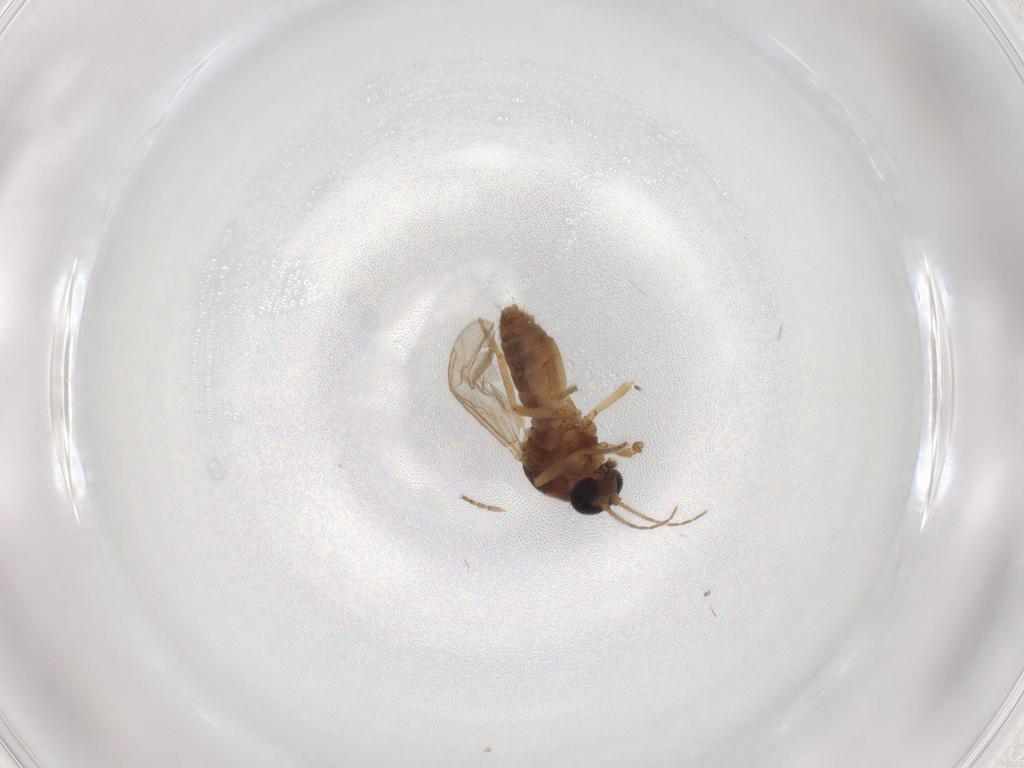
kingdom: Animalia
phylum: Arthropoda
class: Insecta
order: Diptera
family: Ceratopogonidae
